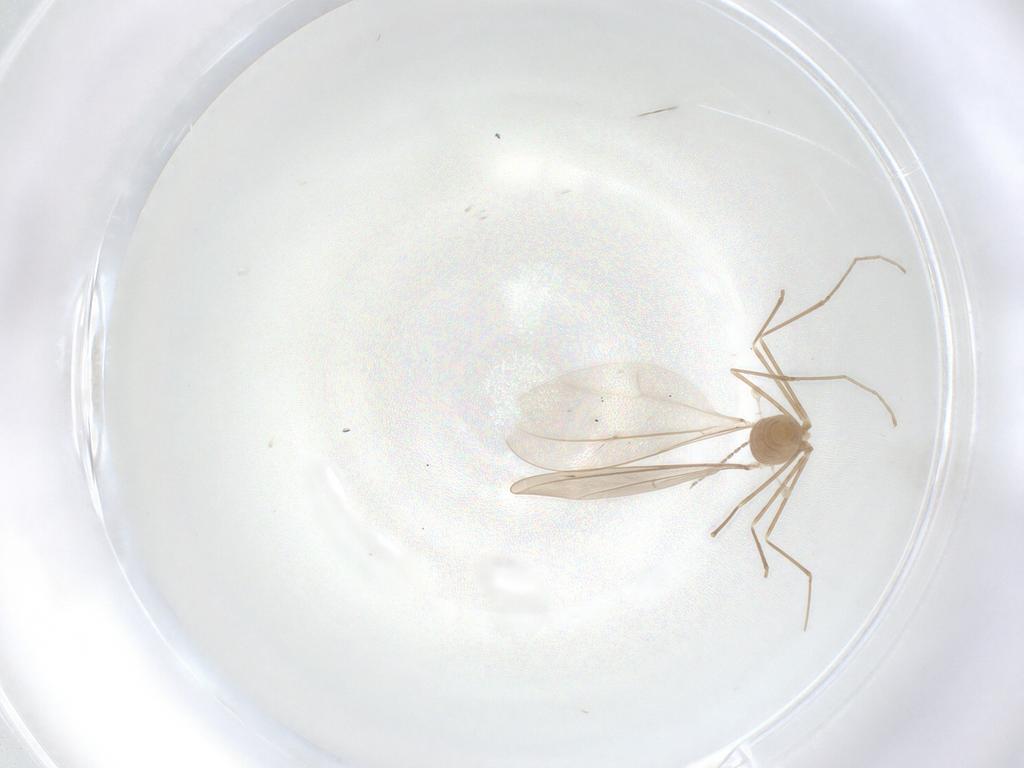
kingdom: Animalia
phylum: Arthropoda
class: Insecta
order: Diptera
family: Cecidomyiidae
